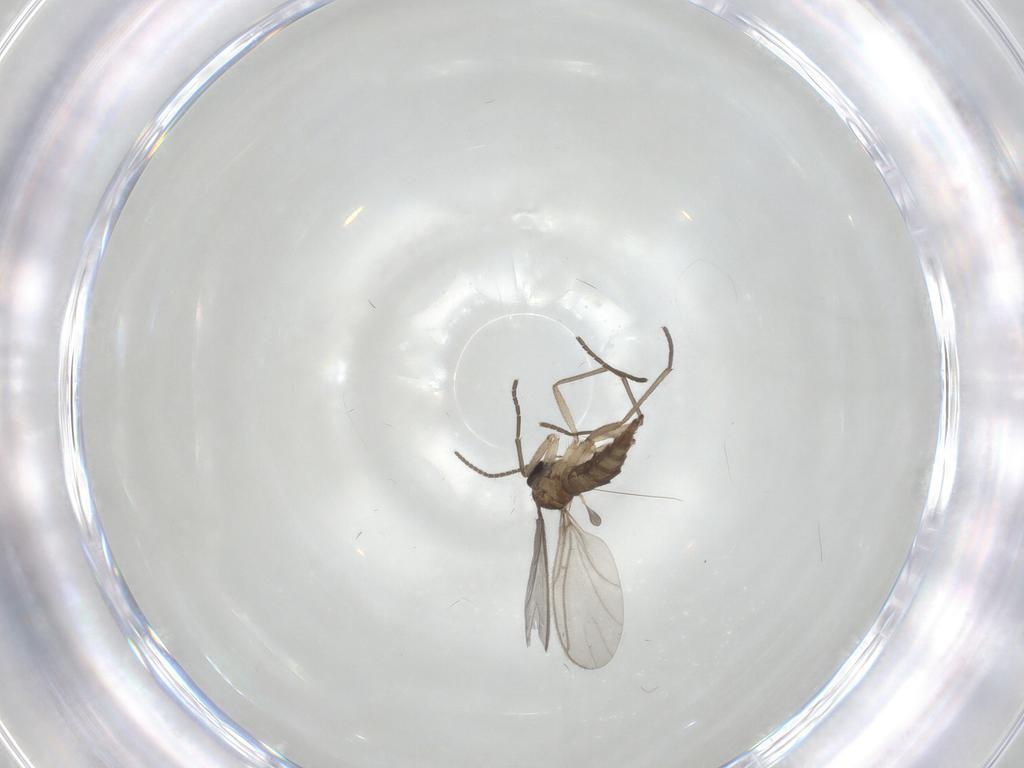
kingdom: Animalia
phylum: Arthropoda
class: Insecta
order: Diptera
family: Sciaridae
